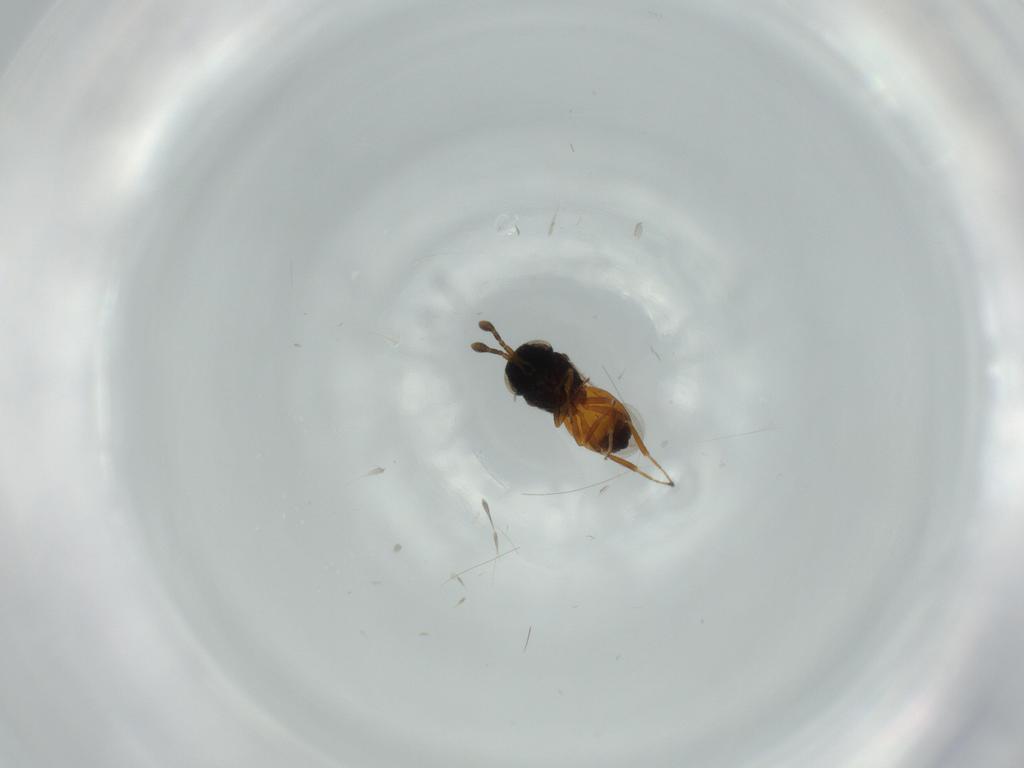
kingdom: Animalia
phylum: Arthropoda
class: Insecta
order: Hymenoptera
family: Scelionidae
